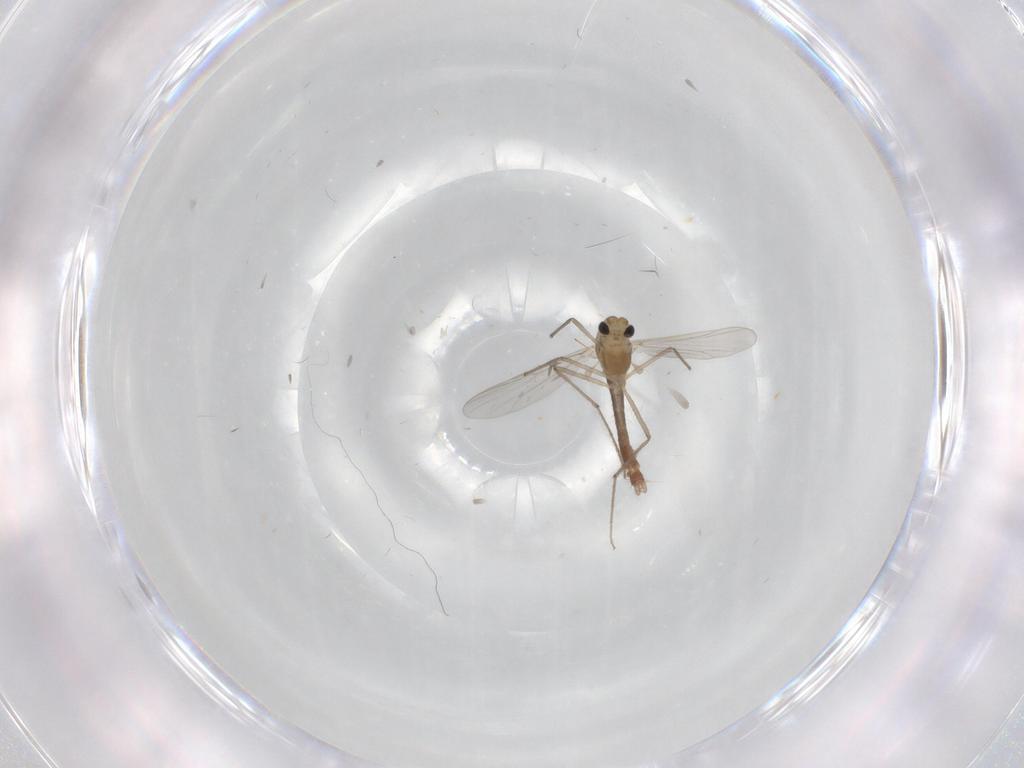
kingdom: Animalia
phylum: Arthropoda
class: Insecta
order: Diptera
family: Chironomidae
